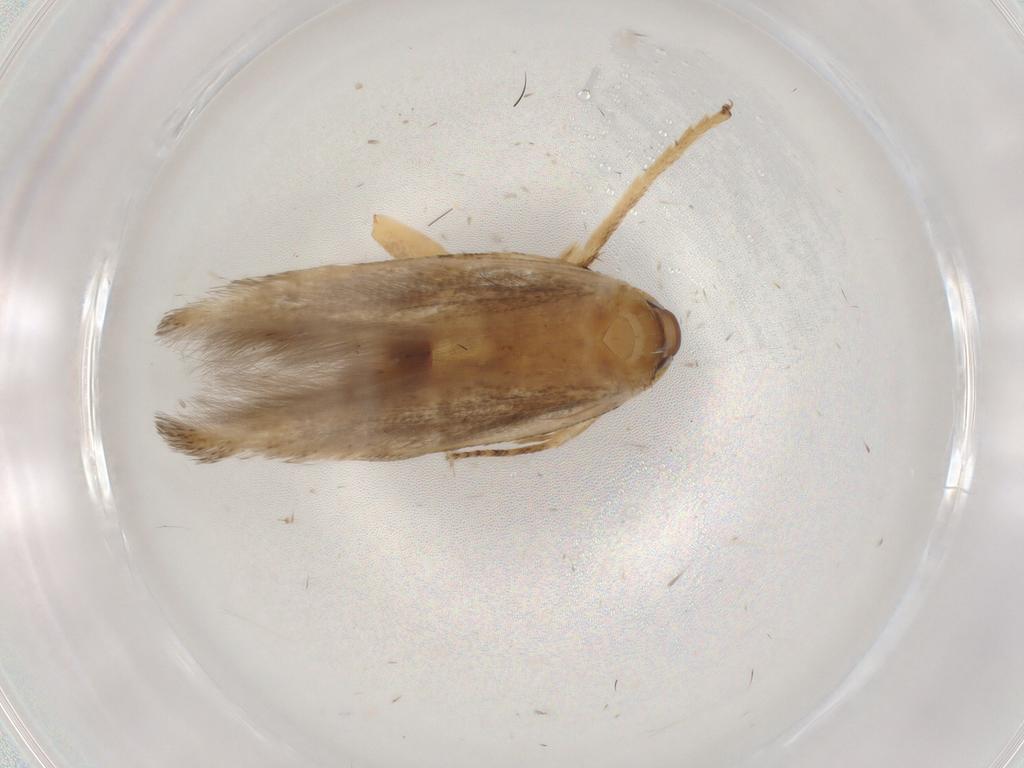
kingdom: Animalia
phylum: Arthropoda
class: Insecta
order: Lepidoptera
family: Cosmopterigidae
